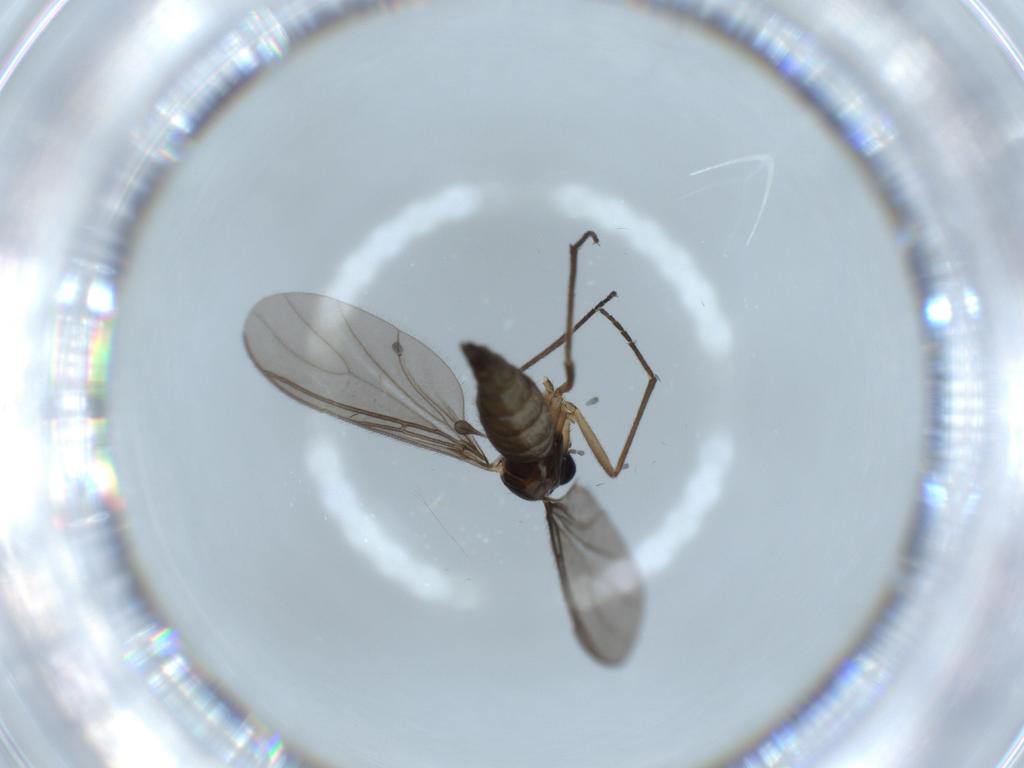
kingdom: Animalia
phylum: Arthropoda
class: Insecta
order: Diptera
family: Sciaridae
